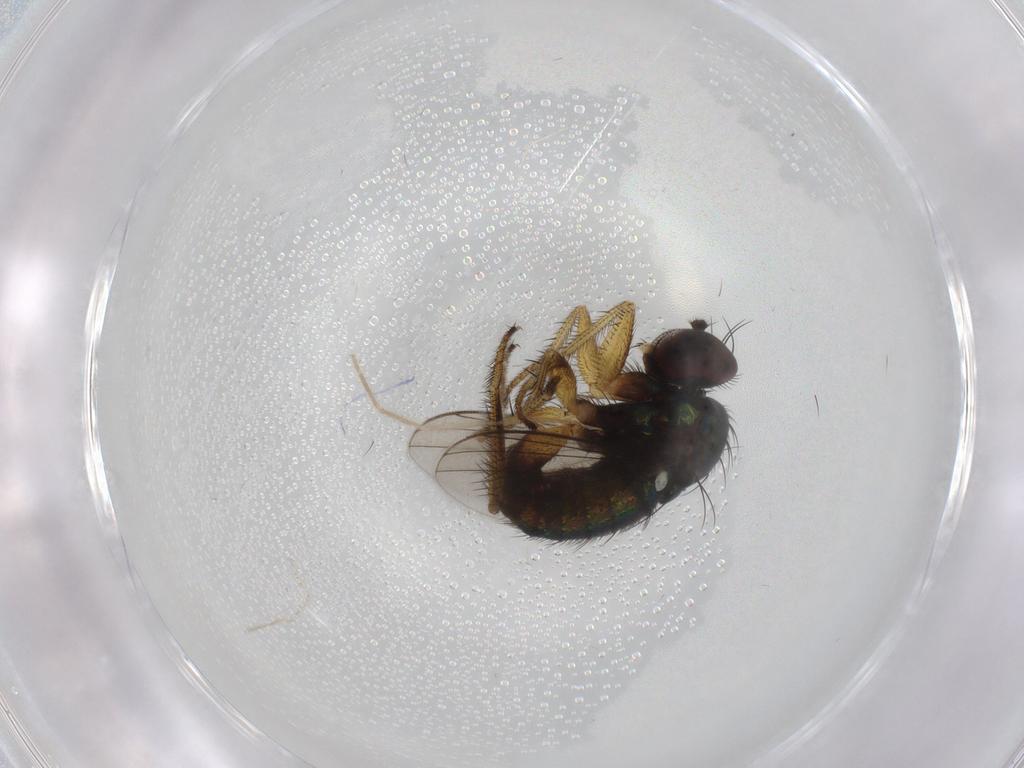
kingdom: Animalia
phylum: Arthropoda
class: Insecta
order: Diptera
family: Dolichopodidae
